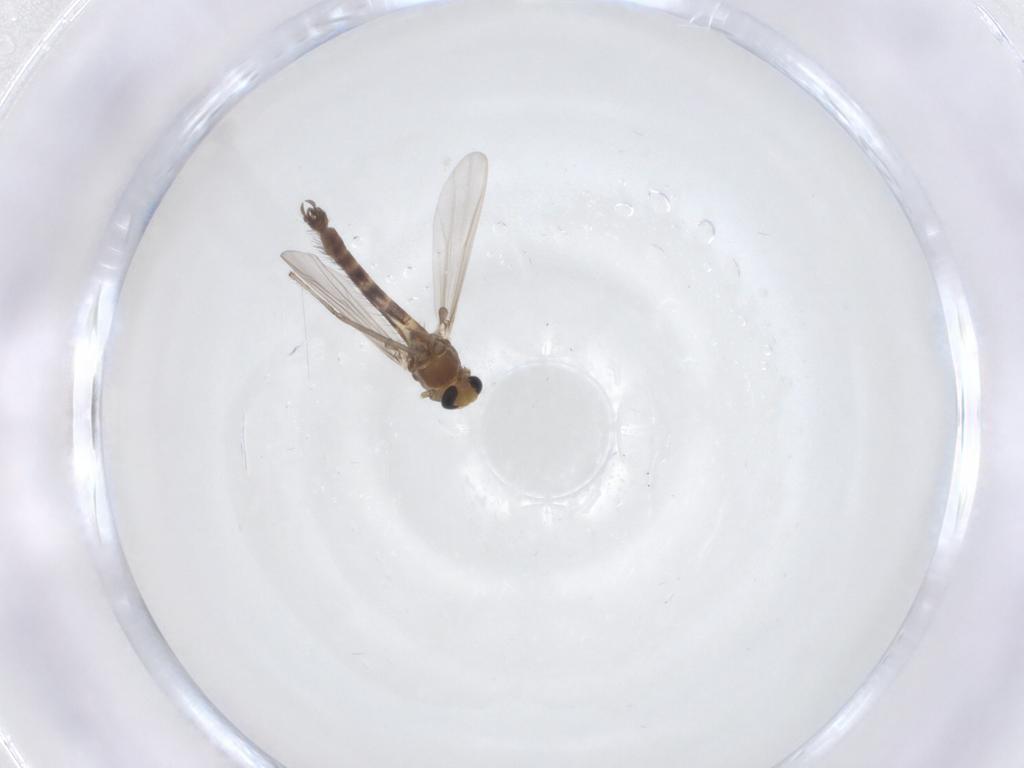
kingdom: Animalia
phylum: Arthropoda
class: Insecta
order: Diptera
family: Chironomidae
